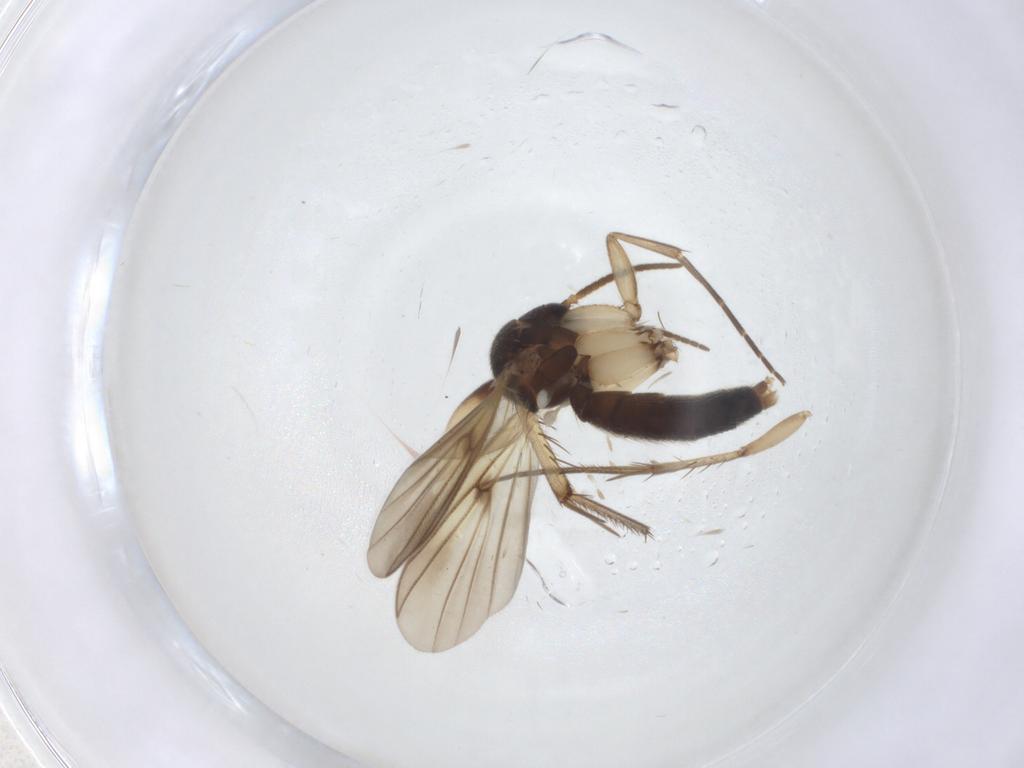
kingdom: Animalia
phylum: Arthropoda
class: Insecta
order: Diptera
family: Mycetophilidae
